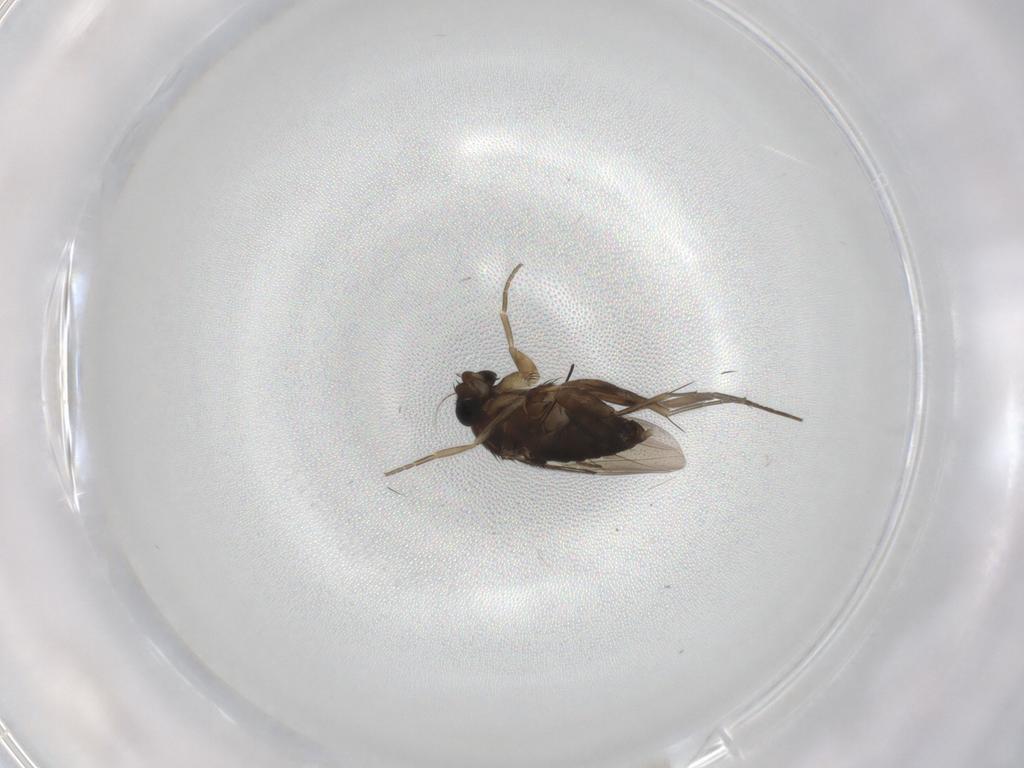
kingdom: Animalia
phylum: Arthropoda
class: Insecta
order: Diptera
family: Phoridae
